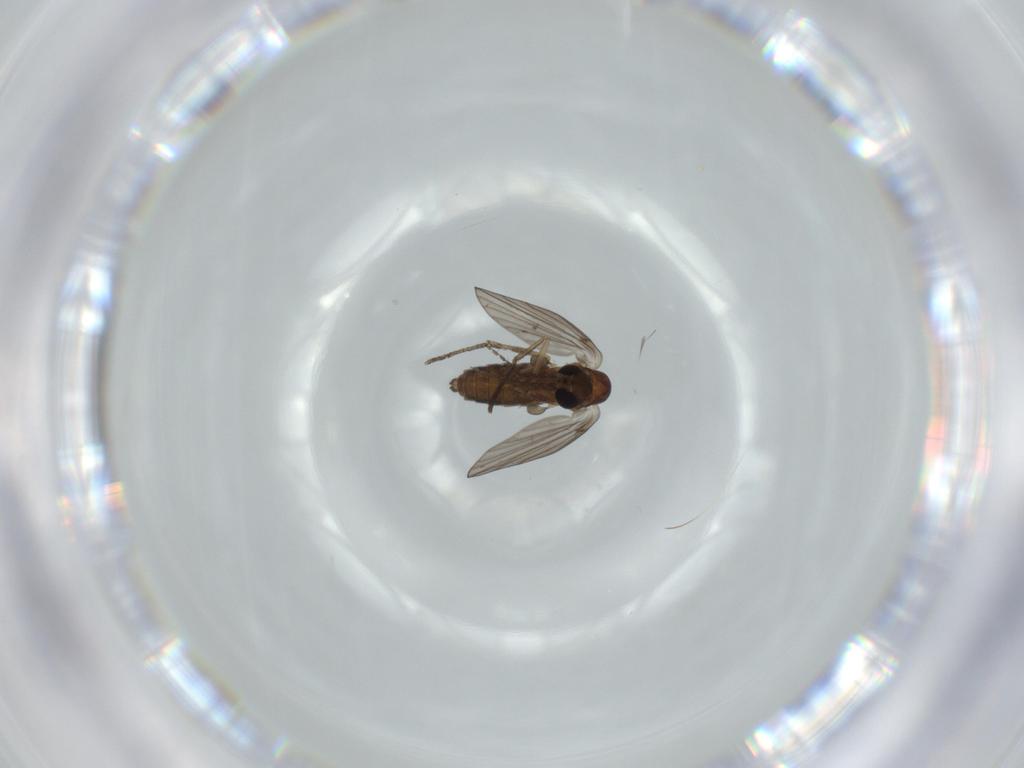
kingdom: Animalia
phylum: Arthropoda
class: Insecta
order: Diptera
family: Psychodidae
